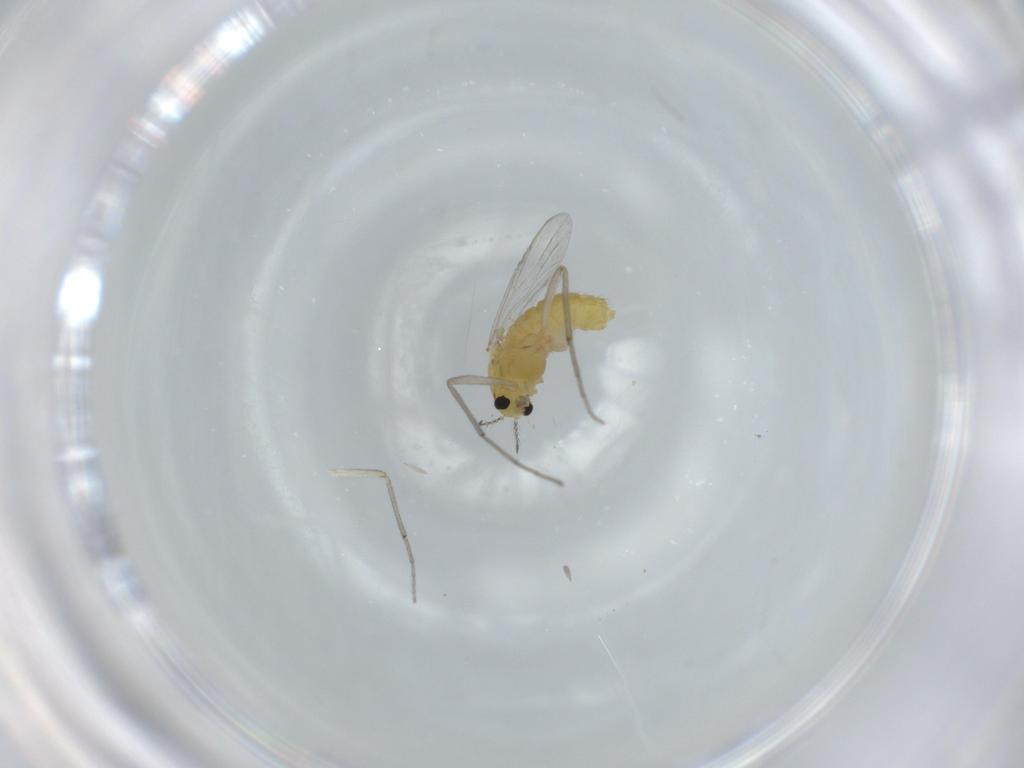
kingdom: Animalia
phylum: Arthropoda
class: Insecta
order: Diptera
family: Chironomidae
